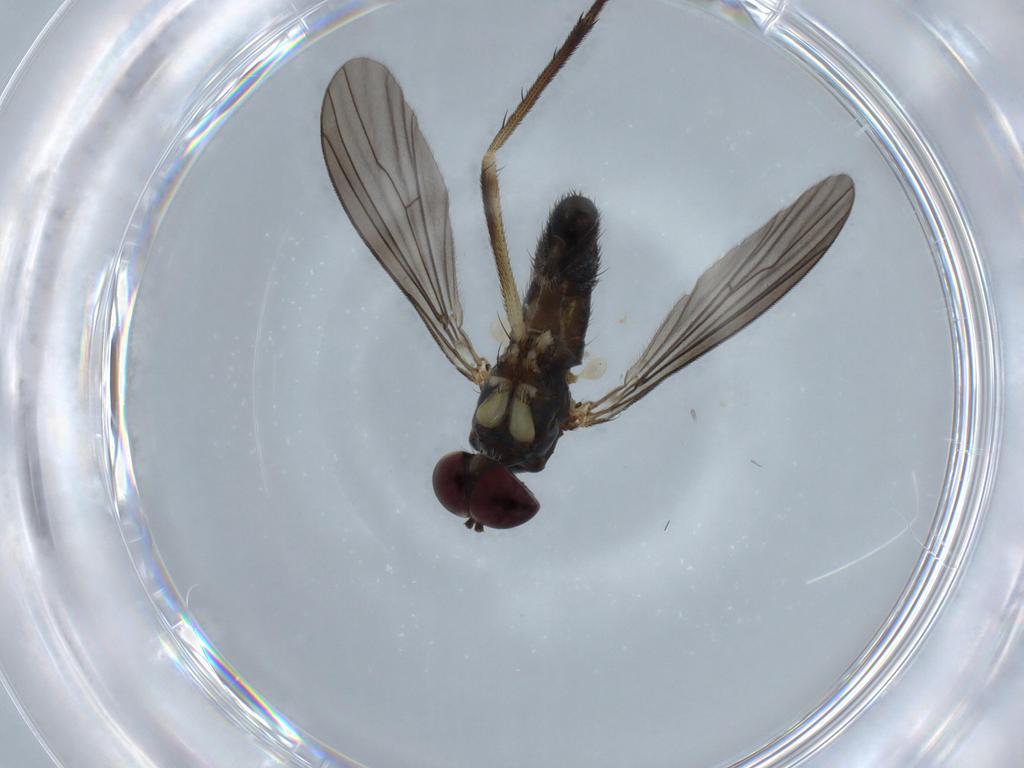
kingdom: Animalia
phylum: Arthropoda
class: Insecta
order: Diptera
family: Dolichopodidae
